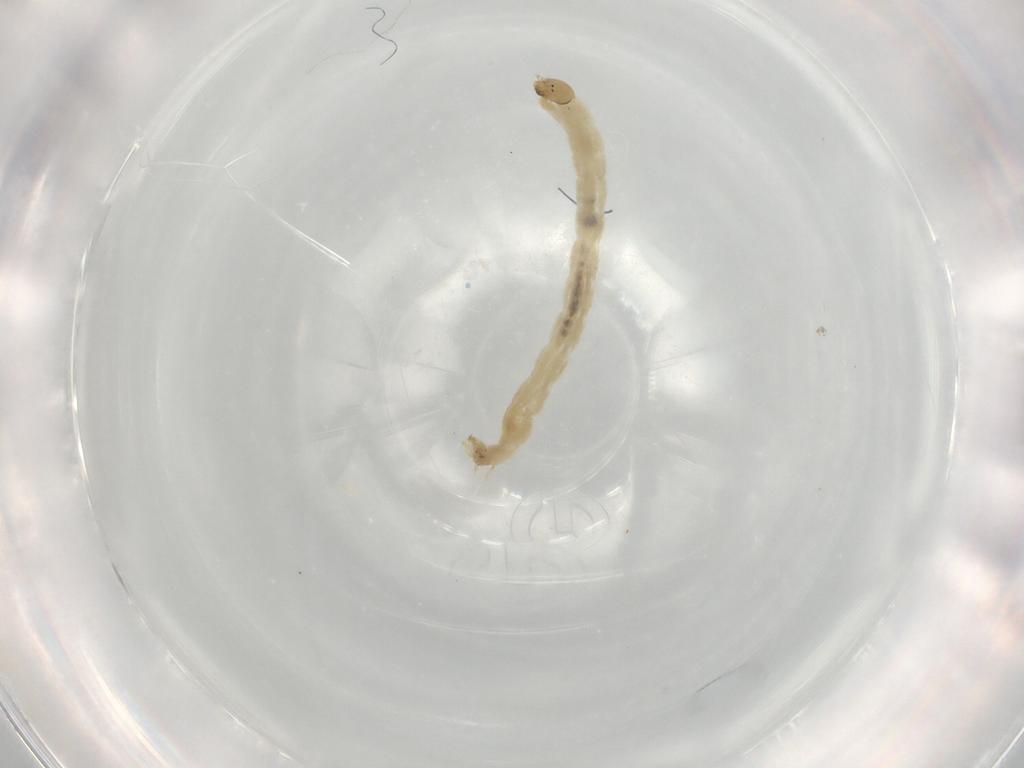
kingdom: Animalia
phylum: Arthropoda
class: Insecta
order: Diptera
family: Chironomidae
